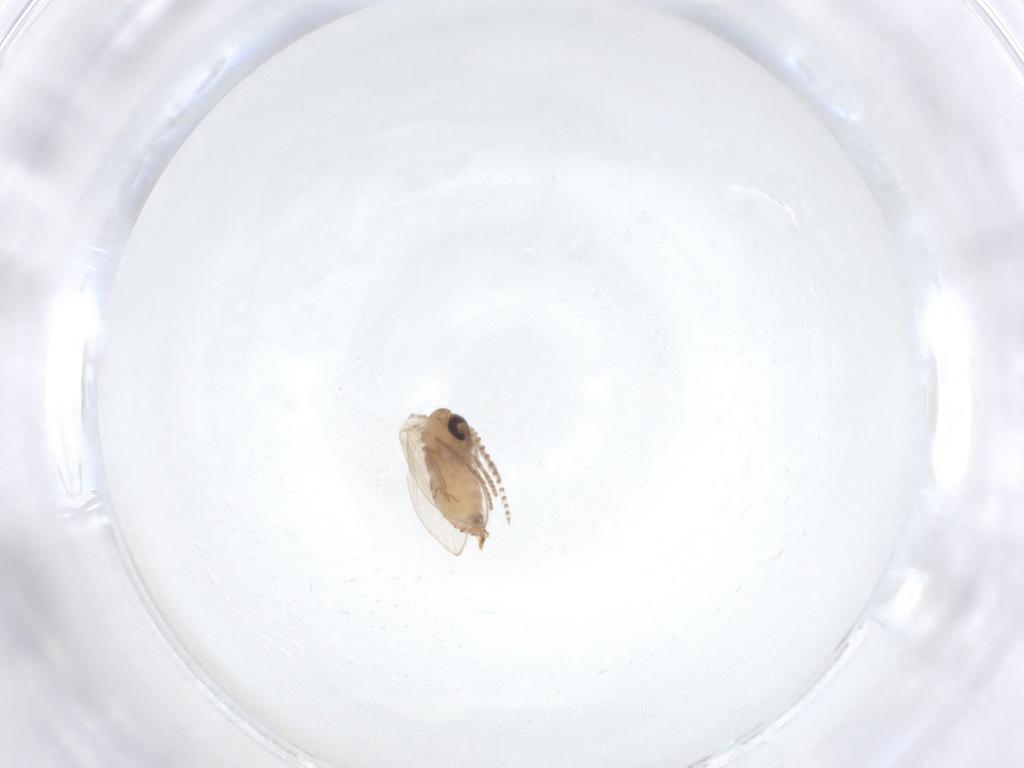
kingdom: Animalia
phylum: Arthropoda
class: Insecta
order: Diptera
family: Psychodidae
